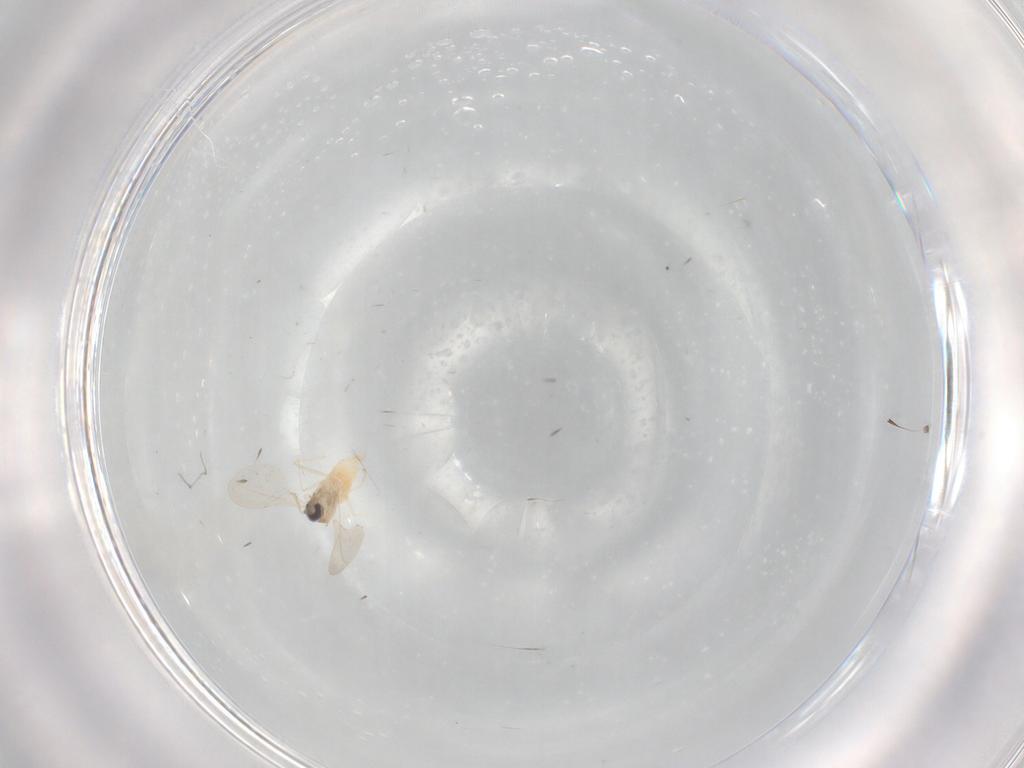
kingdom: Animalia
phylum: Arthropoda
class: Insecta
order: Diptera
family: Cecidomyiidae
